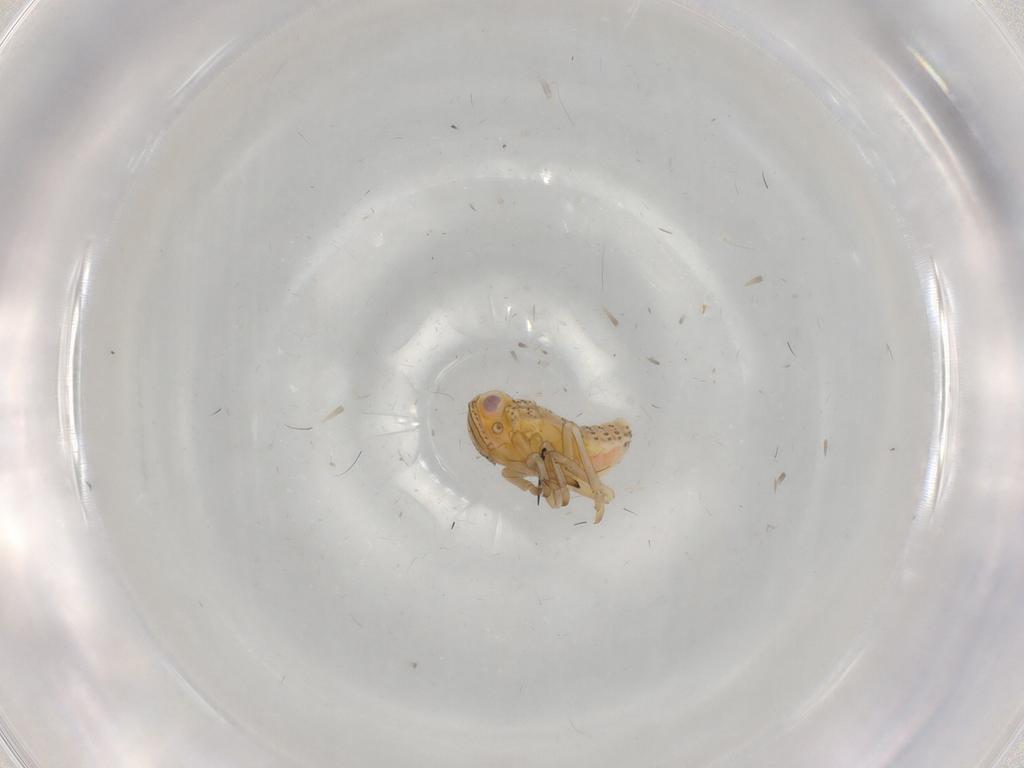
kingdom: Animalia
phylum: Arthropoda
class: Insecta
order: Hemiptera
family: Tropiduchidae
